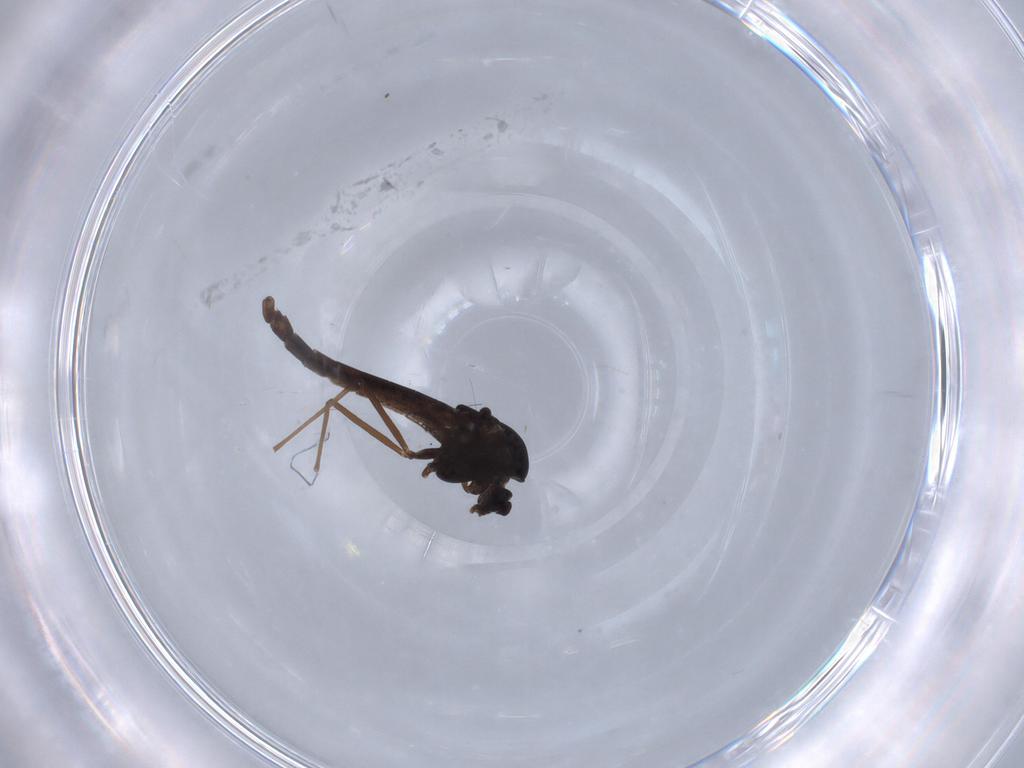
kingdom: Animalia
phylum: Arthropoda
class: Insecta
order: Diptera
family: Chironomidae
